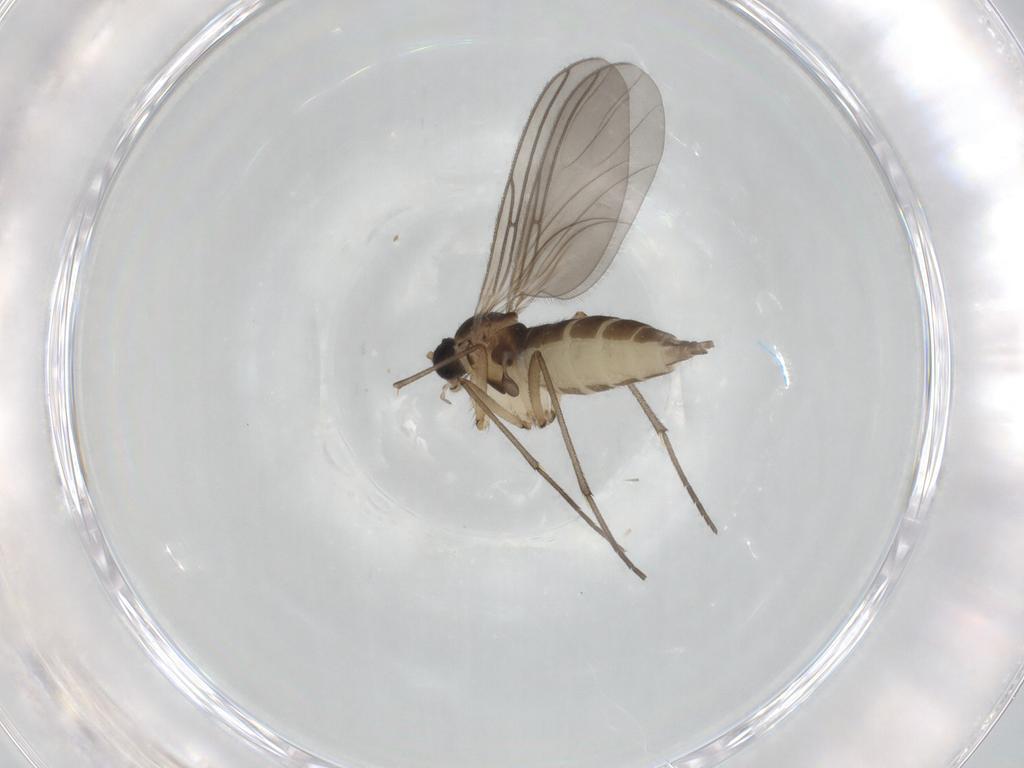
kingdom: Animalia
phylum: Arthropoda
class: Insecta
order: Diptera
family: Sciaridae
